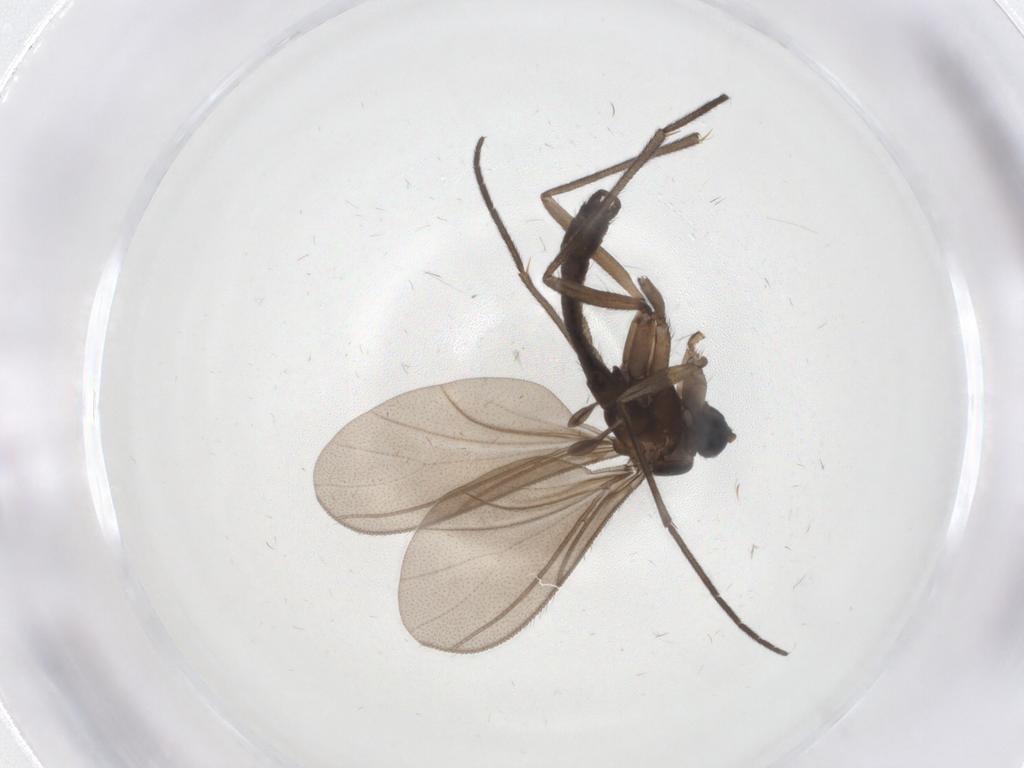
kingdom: Animalia
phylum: Arthropoda
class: Insecta
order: Diptera
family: Sciaridae
